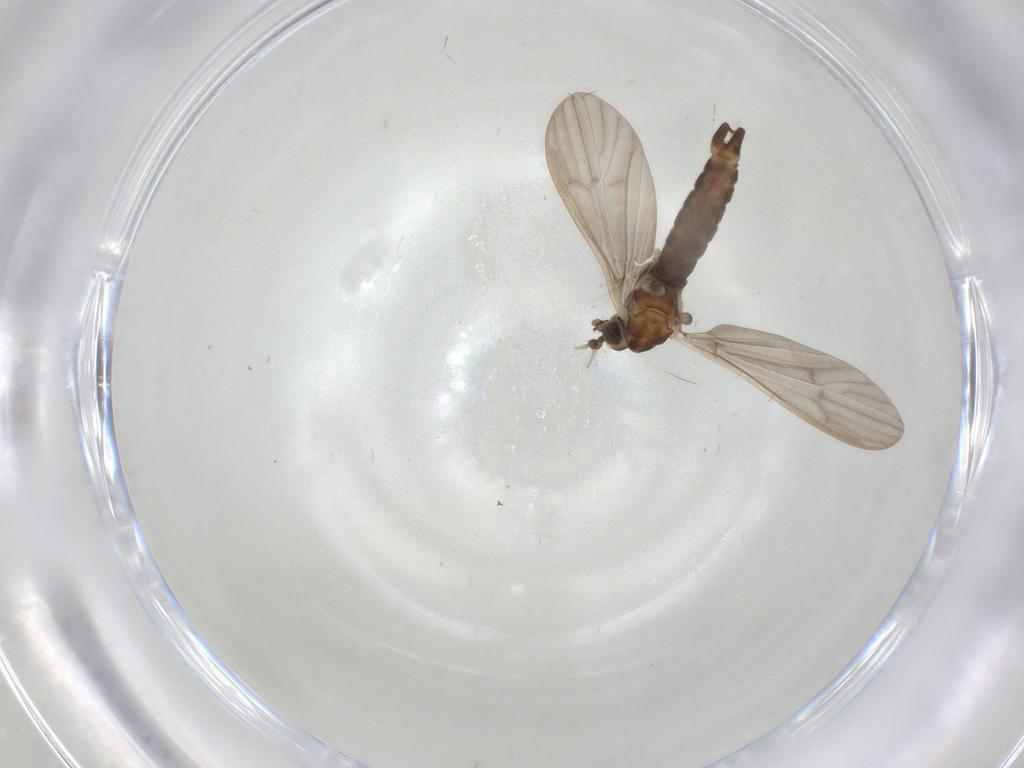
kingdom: Animalia
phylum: Arthropoda
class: Insecta
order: Diptera
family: Limoniidae
